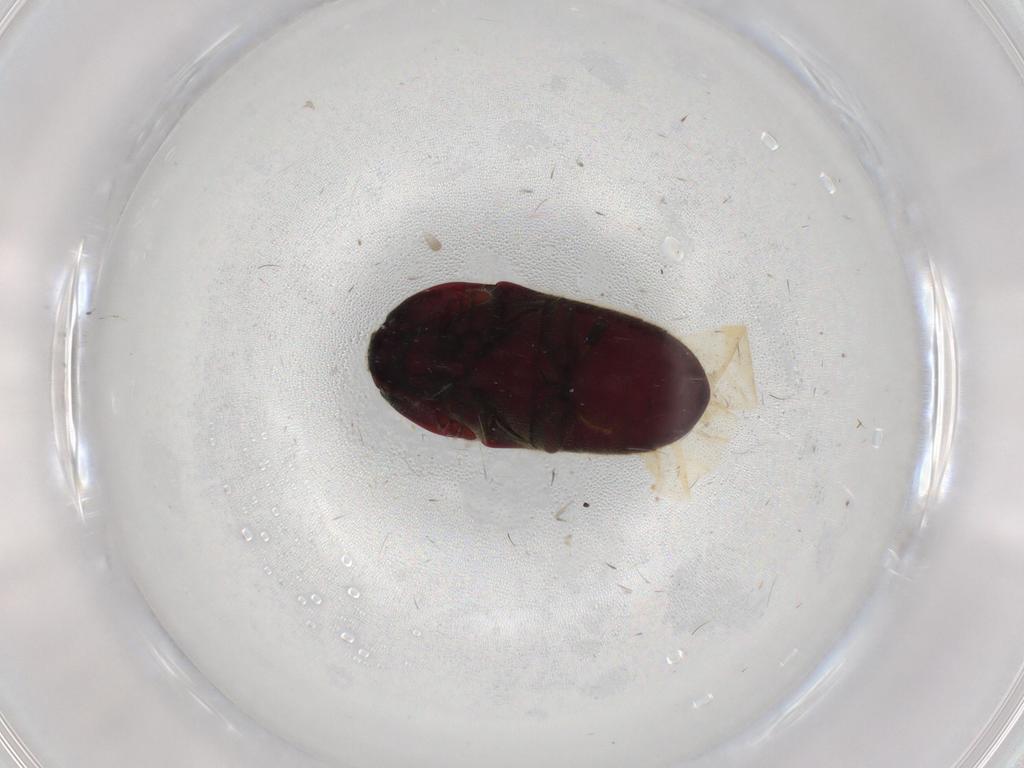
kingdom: Animalia
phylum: Arthropoda
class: Insecta
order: Coleoptera
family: Throscidae
